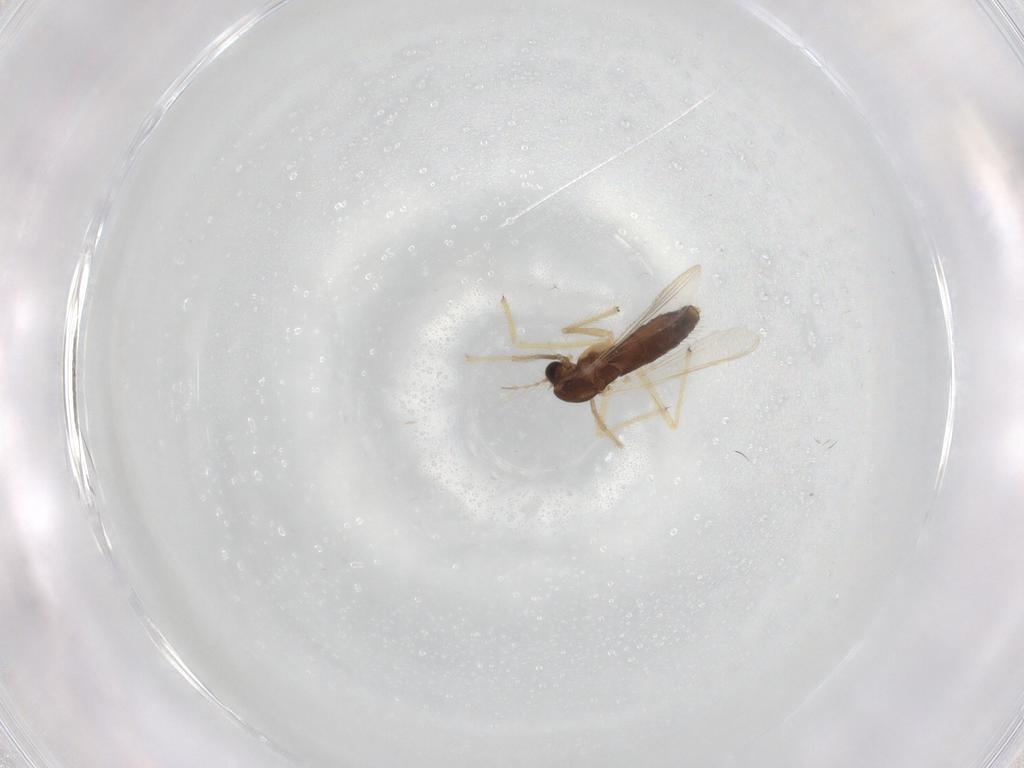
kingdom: Animalia
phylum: Arthropoda
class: Insecta
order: Diptera
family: Chironomidae
